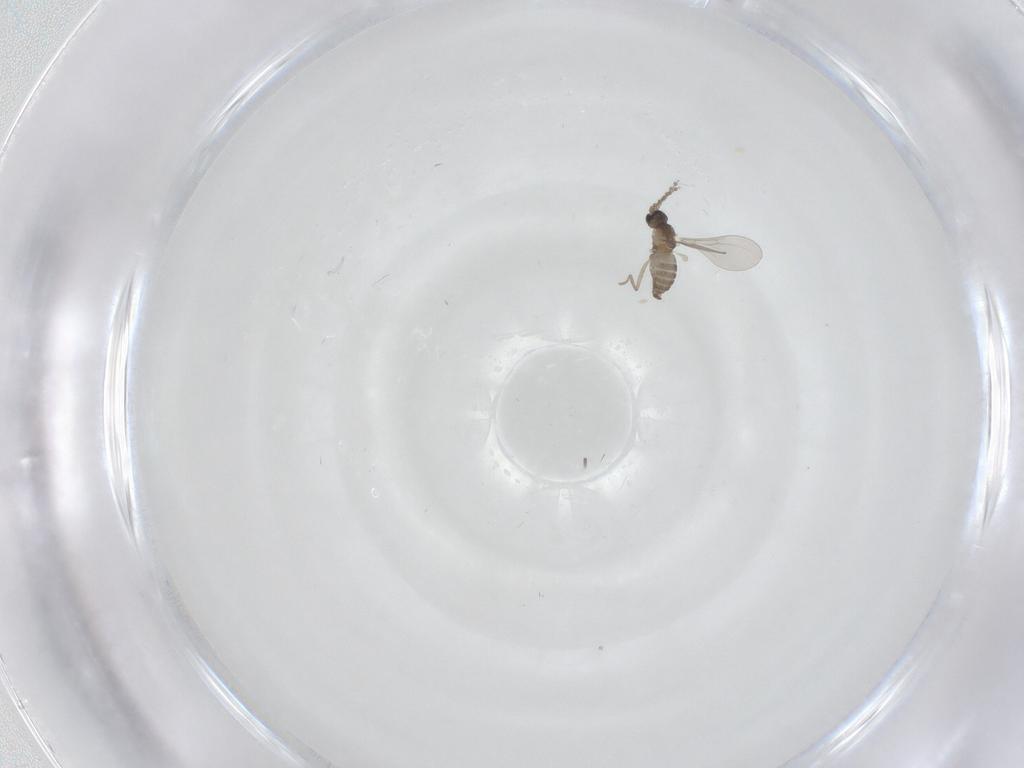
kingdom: Animalia
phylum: Arthropoda
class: Insecta
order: Diptera
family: Cecidomyiidae
